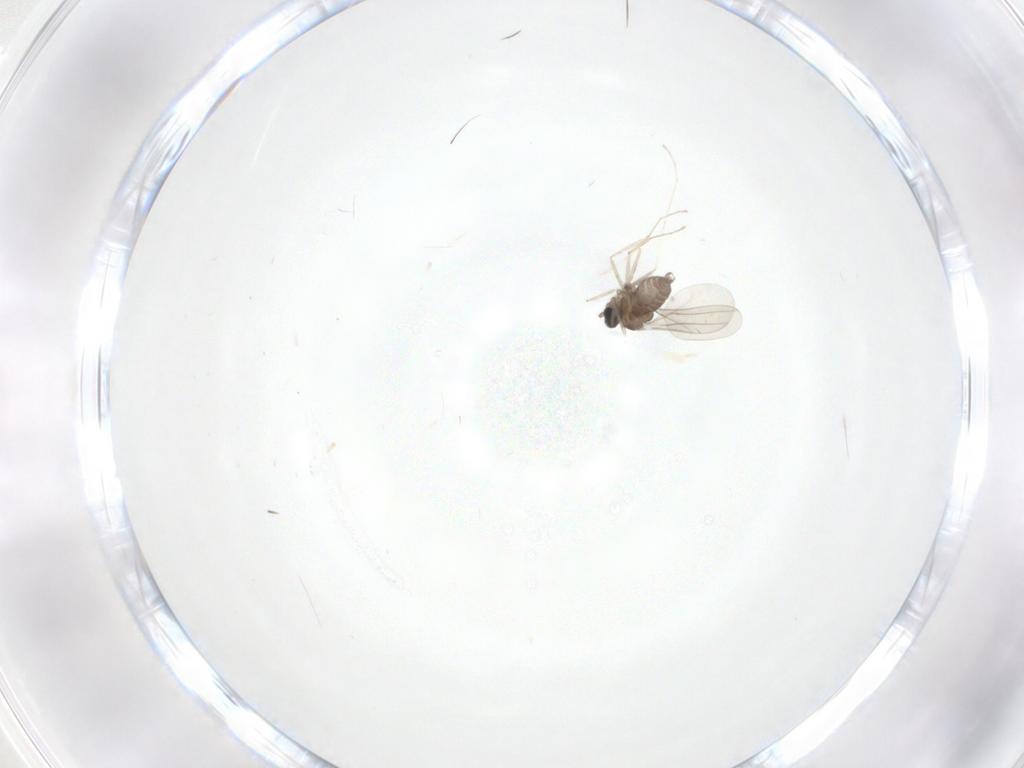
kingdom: Animalia
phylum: Arthropoda
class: Insecta
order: Diptera
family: Cecidomyiidae
